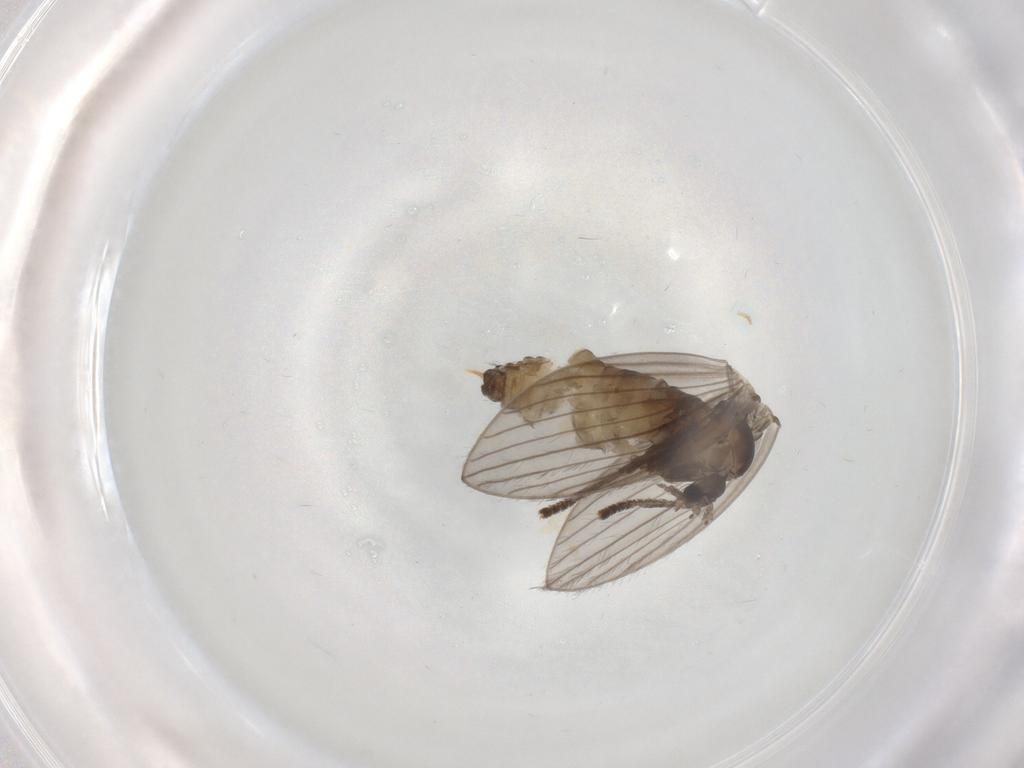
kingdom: Animalia
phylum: Arthropoda
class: Insecta
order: Diptera
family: Psychodidae
